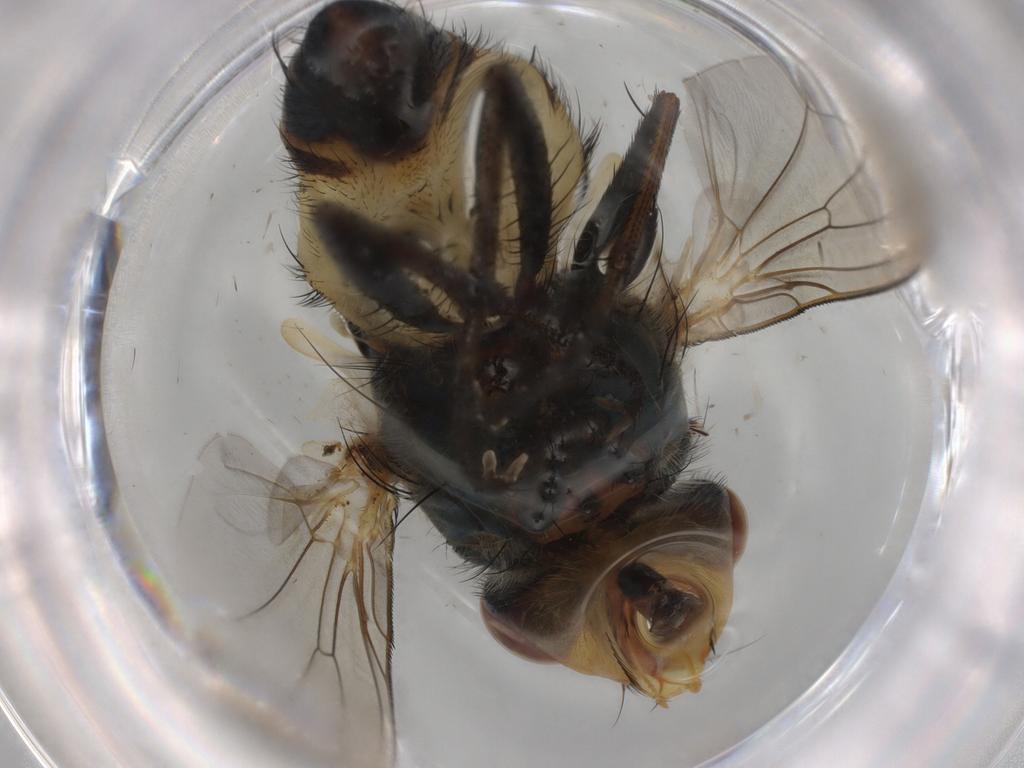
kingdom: Animalia
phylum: Arthropoda
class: Insecta
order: Diptera
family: Calliphoridae
